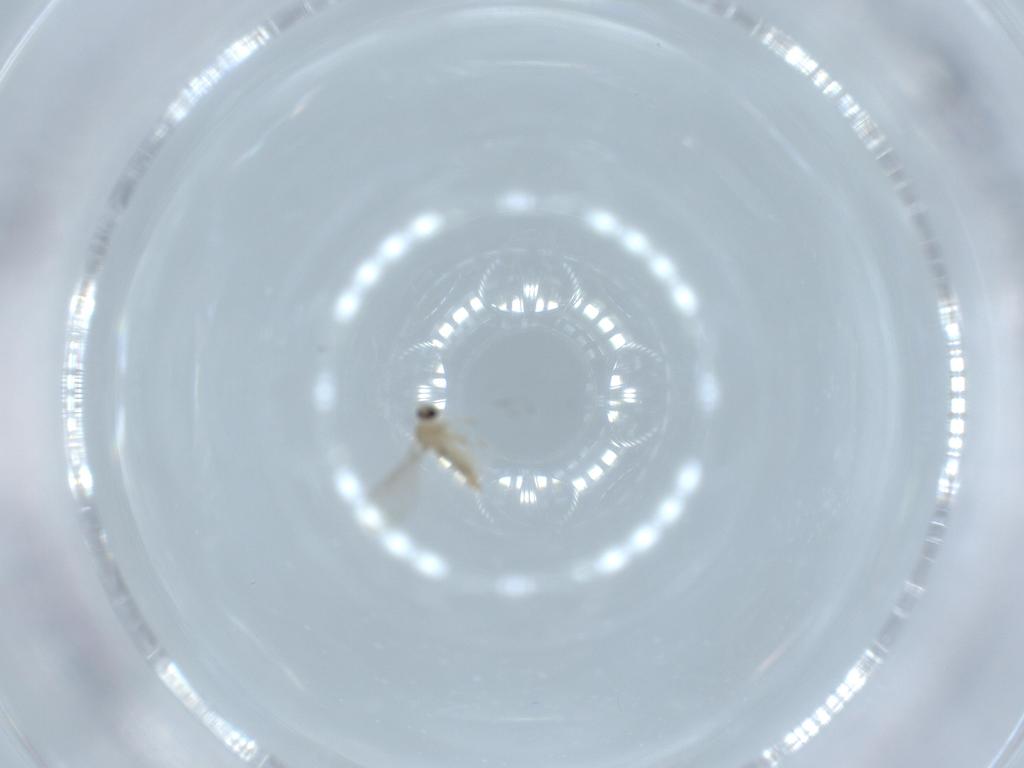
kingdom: Animalia
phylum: Arthropoda
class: Insecta
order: Diptera
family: Cecidomyiidae
